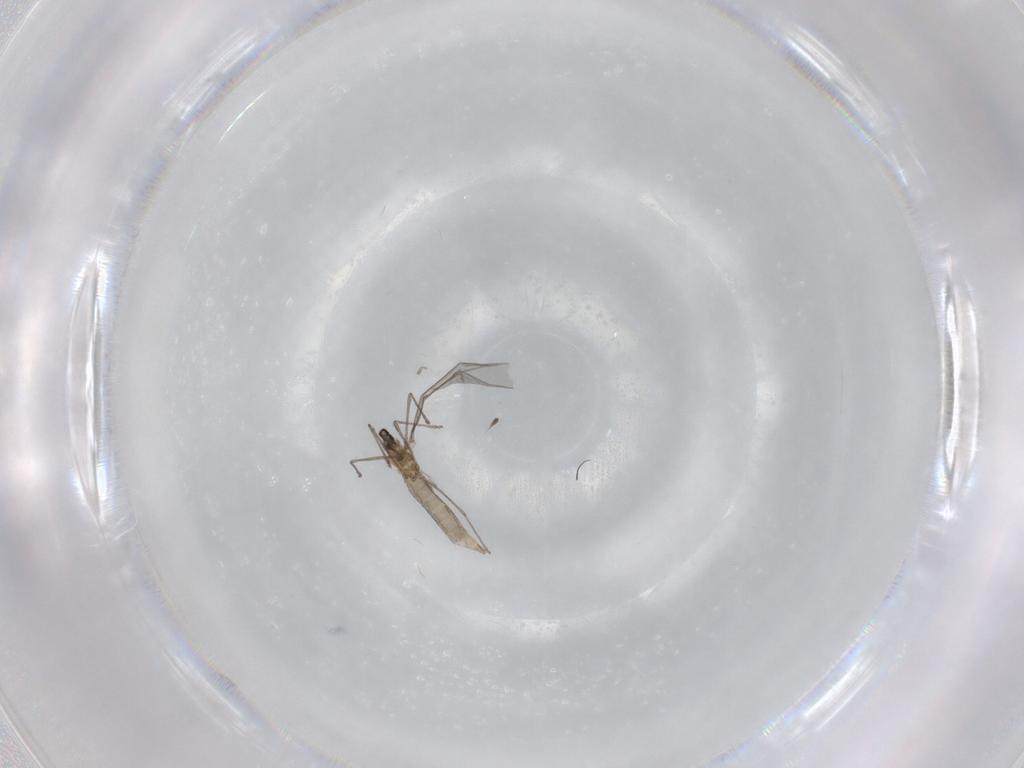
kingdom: Animalia
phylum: Arthropoda
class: Insecta
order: Diptera
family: Cecidomyiidae
